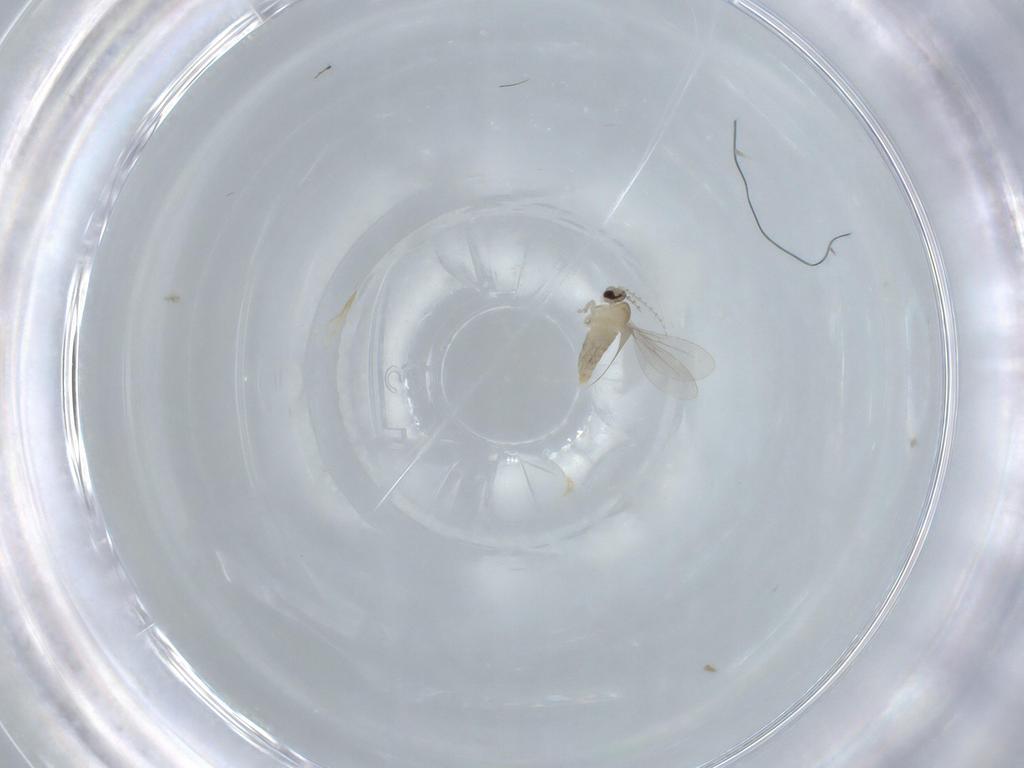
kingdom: Animalia
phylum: Arthropoda
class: Insecta
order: Diptera
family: Cecidomyiidae
